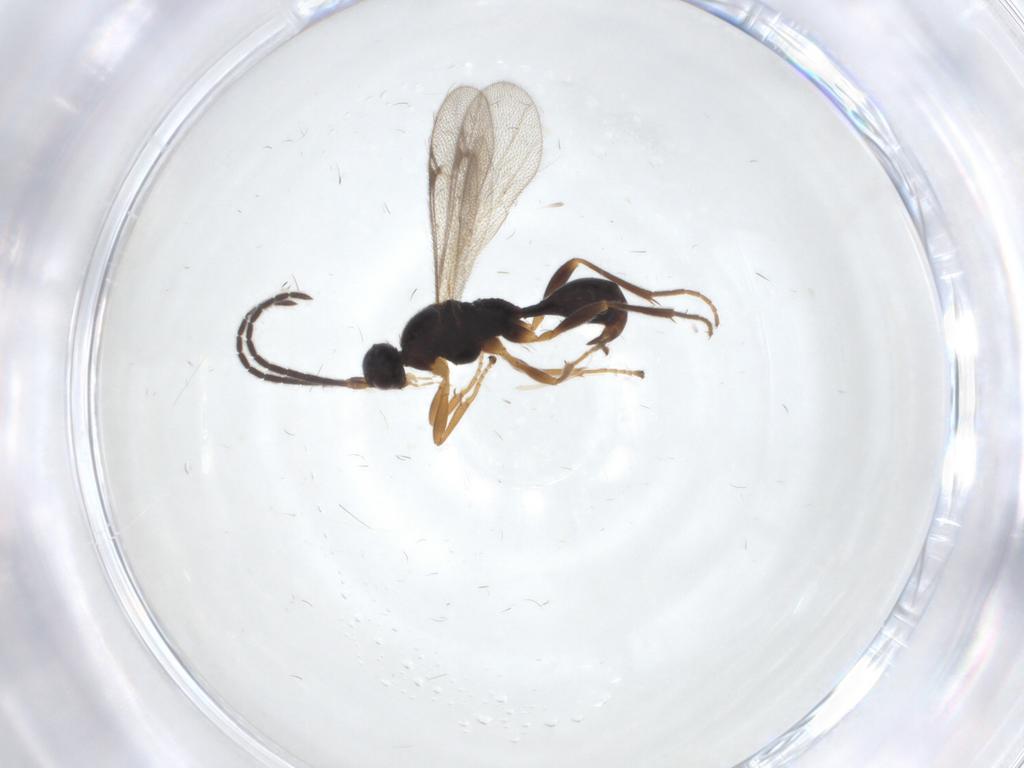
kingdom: Animalia
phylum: Arthropoda
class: Insecta
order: Hymenoptera
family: Proctotrupidae
